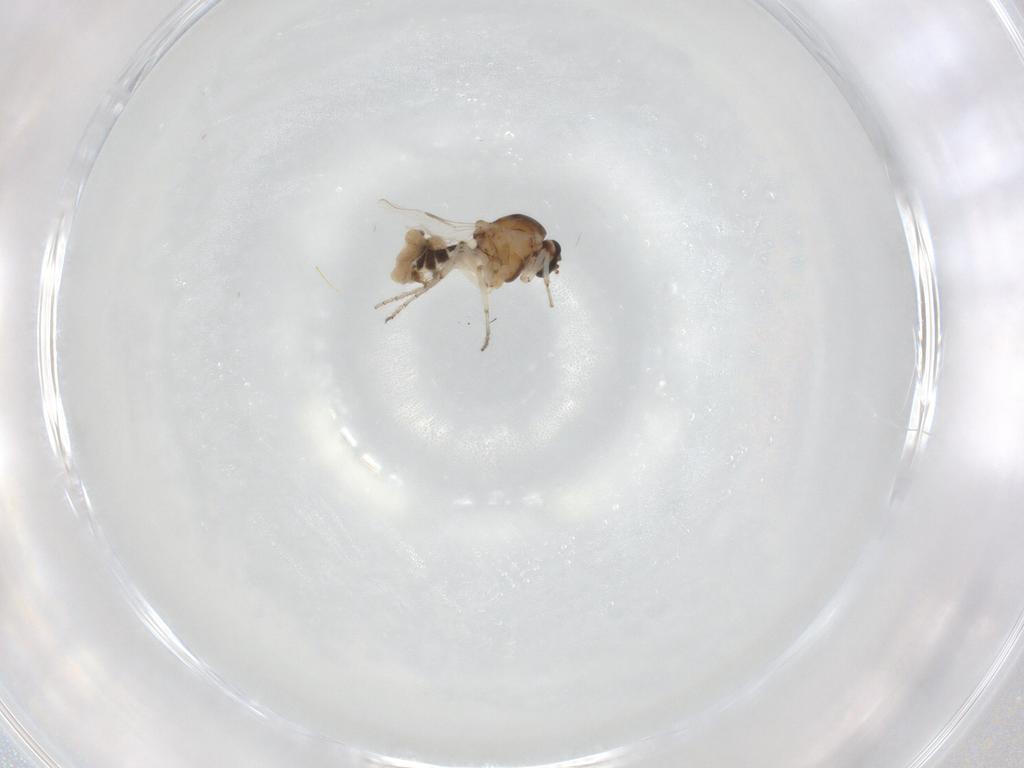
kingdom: Animalia
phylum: Arthropoda
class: Insecta
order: Diptera
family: Ceratopogonidae
